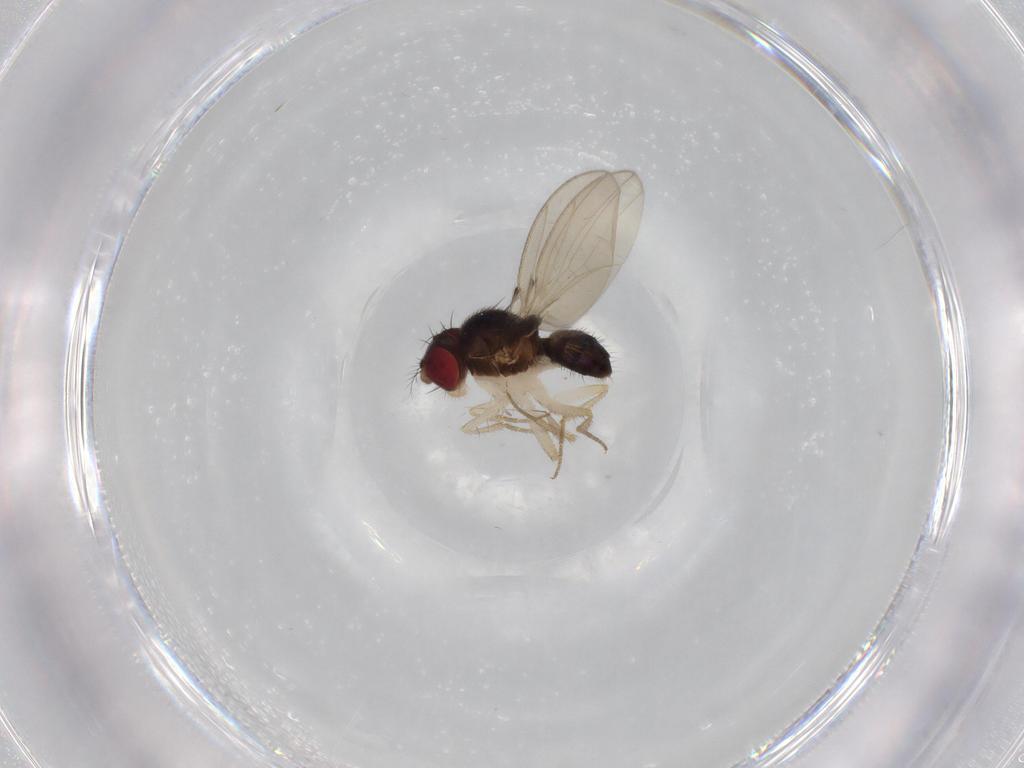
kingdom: Animalia
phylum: Arthropoda
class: Insecta
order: Diptera
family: Drosophilidae
